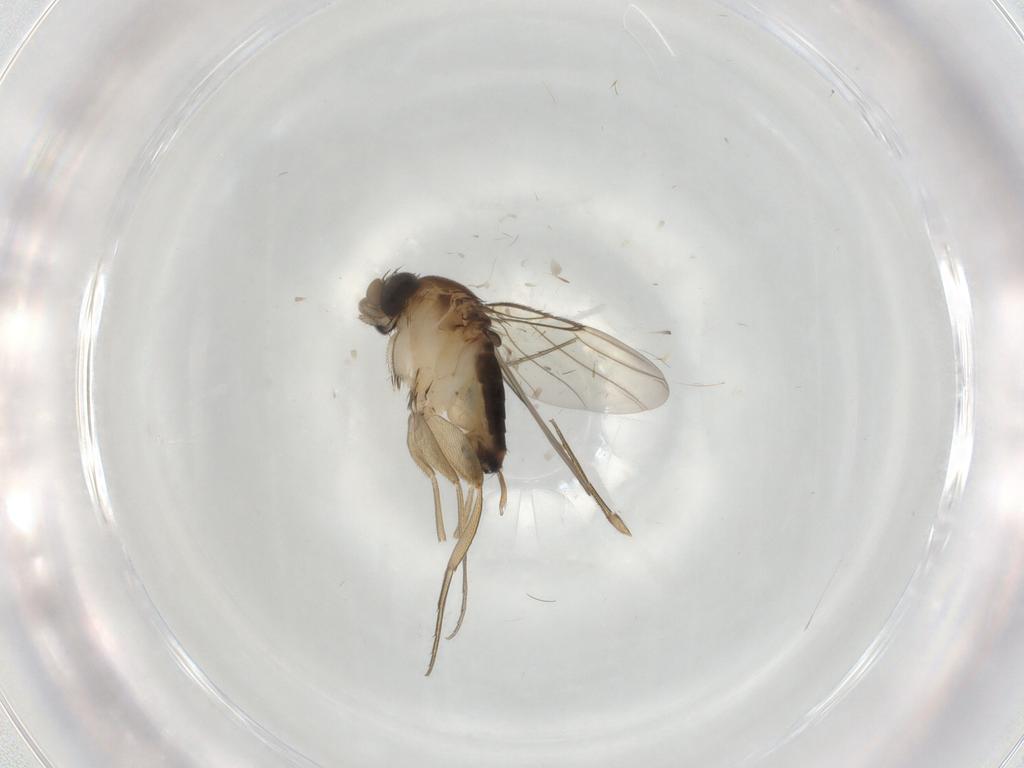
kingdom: Animalia
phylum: Arthropoda
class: Insecta
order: Diptera
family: Phoridae
